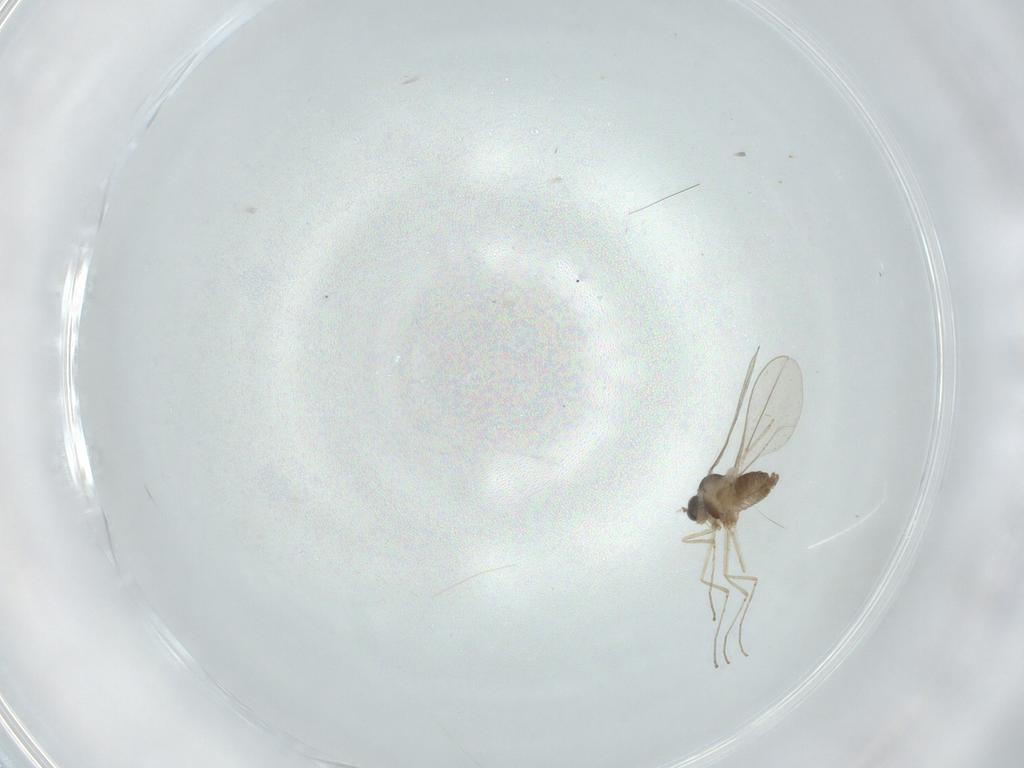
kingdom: Animalia
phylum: Arthropoda
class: Insecta
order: Diptera
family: Cecidomyiidae
